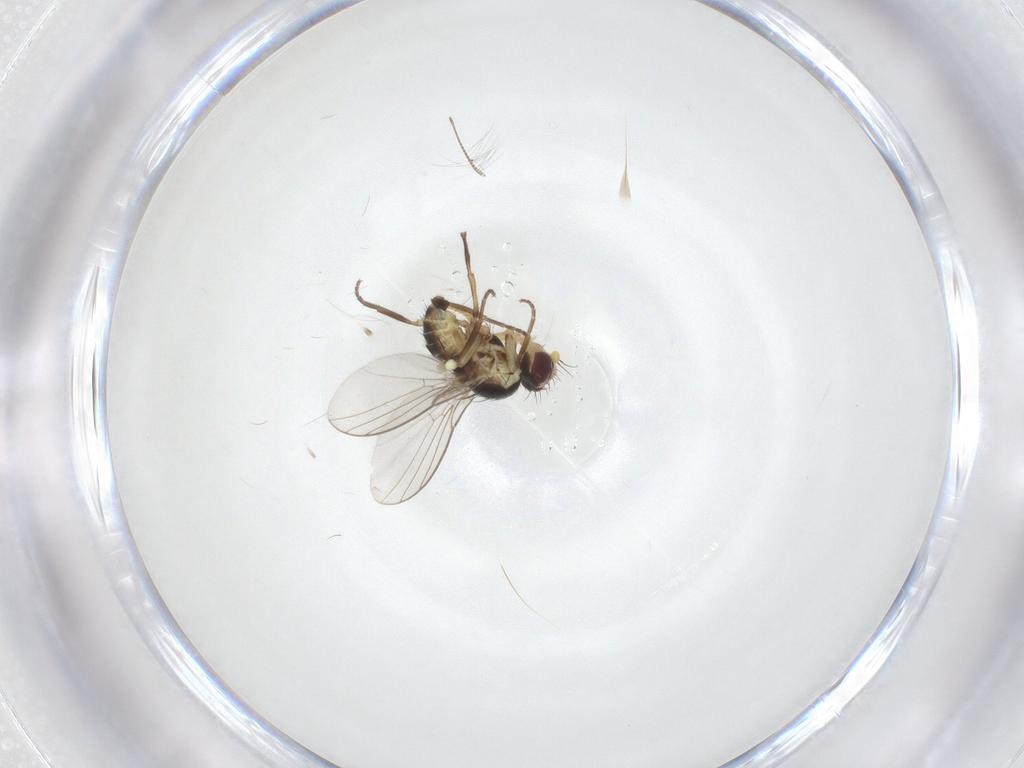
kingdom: Animalia
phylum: Arthropoda
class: Insecta
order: Diptera
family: Agromyzidae
